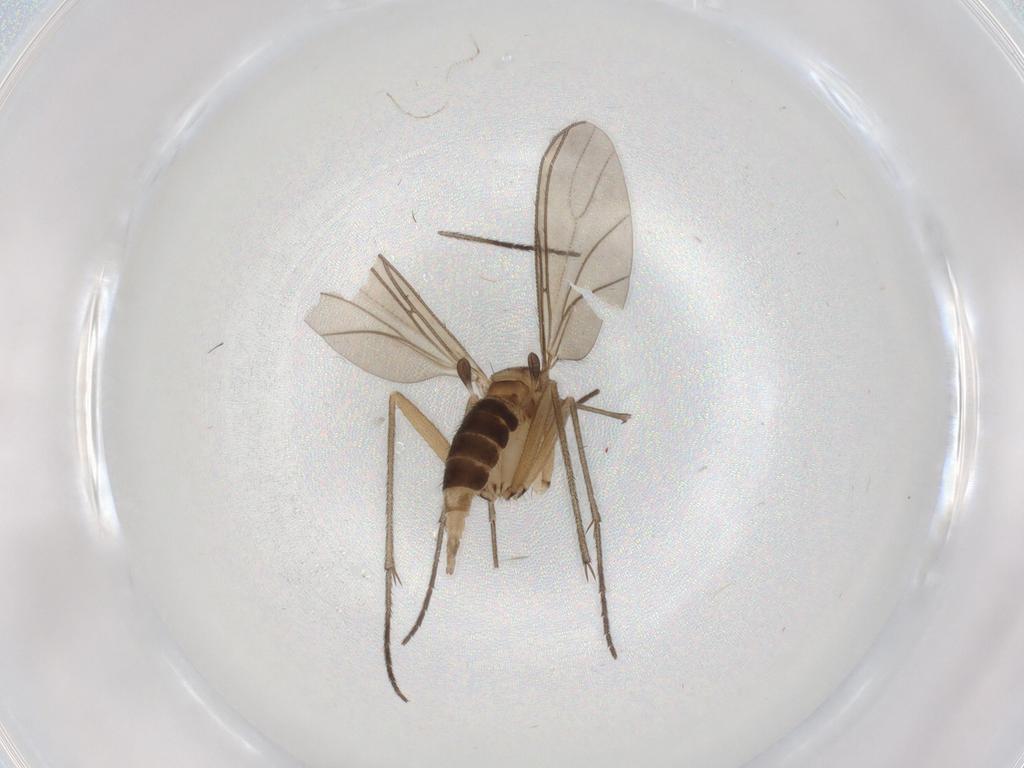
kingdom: Animalia
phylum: Arthropoda
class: Insecta
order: Diptera
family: Sciaridae
